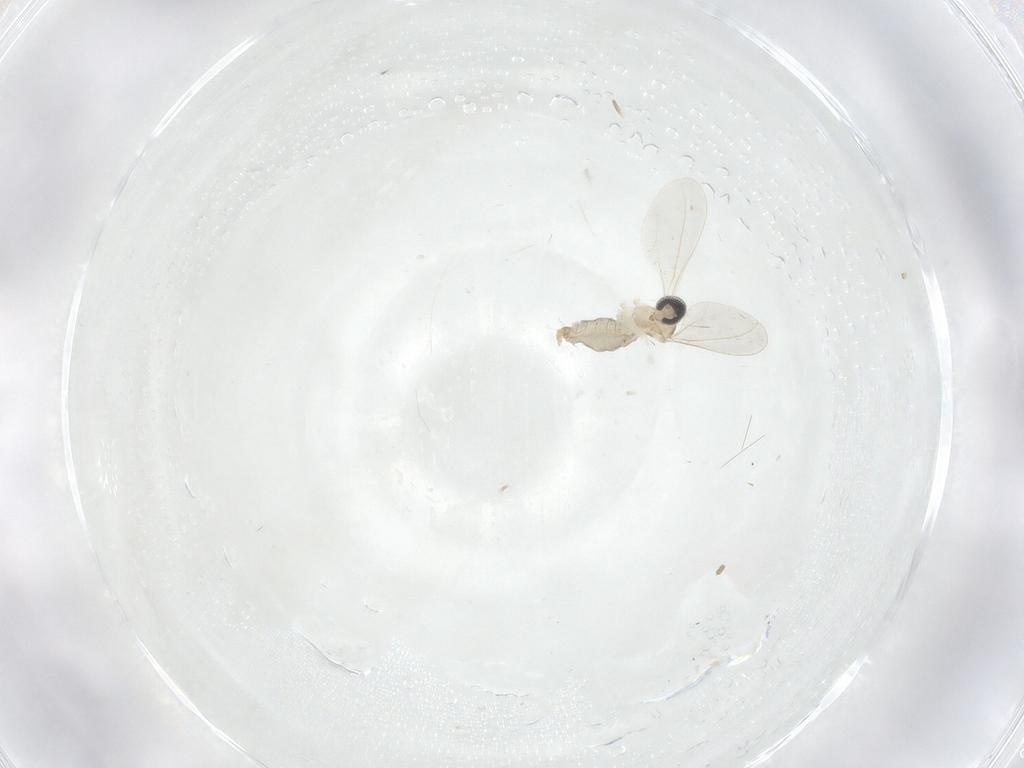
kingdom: Animalia
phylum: Arthropoda
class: Insecta
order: Diptera
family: Cecidomyiidae
